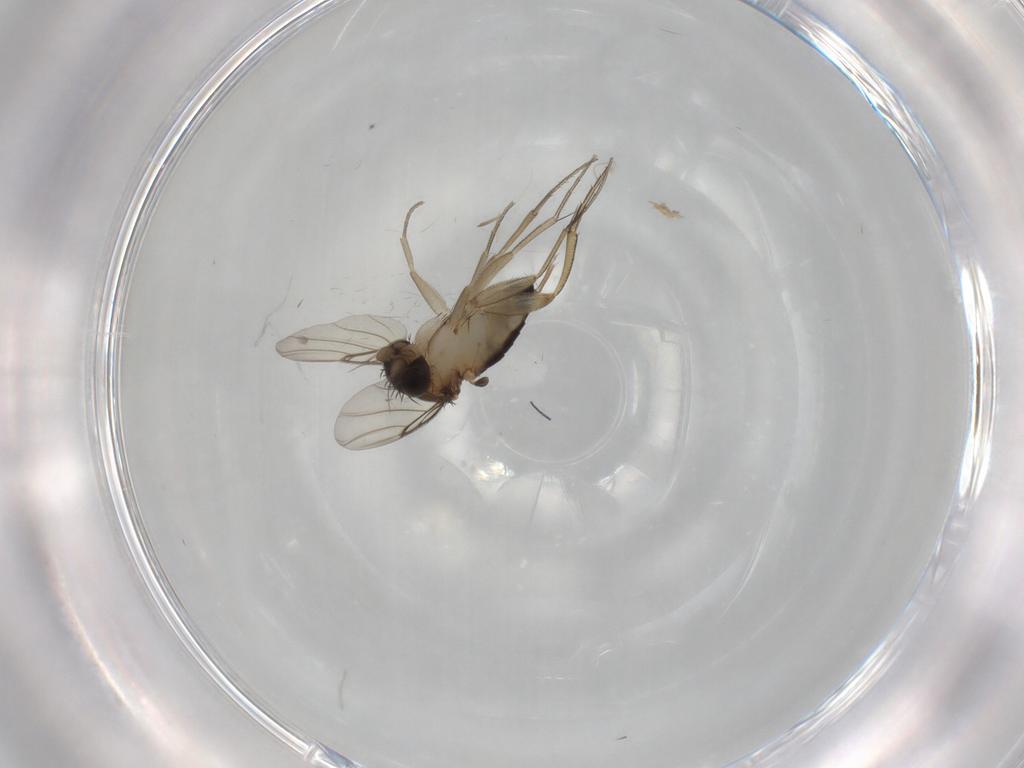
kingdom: Animalia
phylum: Arthropoda
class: Insecta
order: Diptera
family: Phoridae
